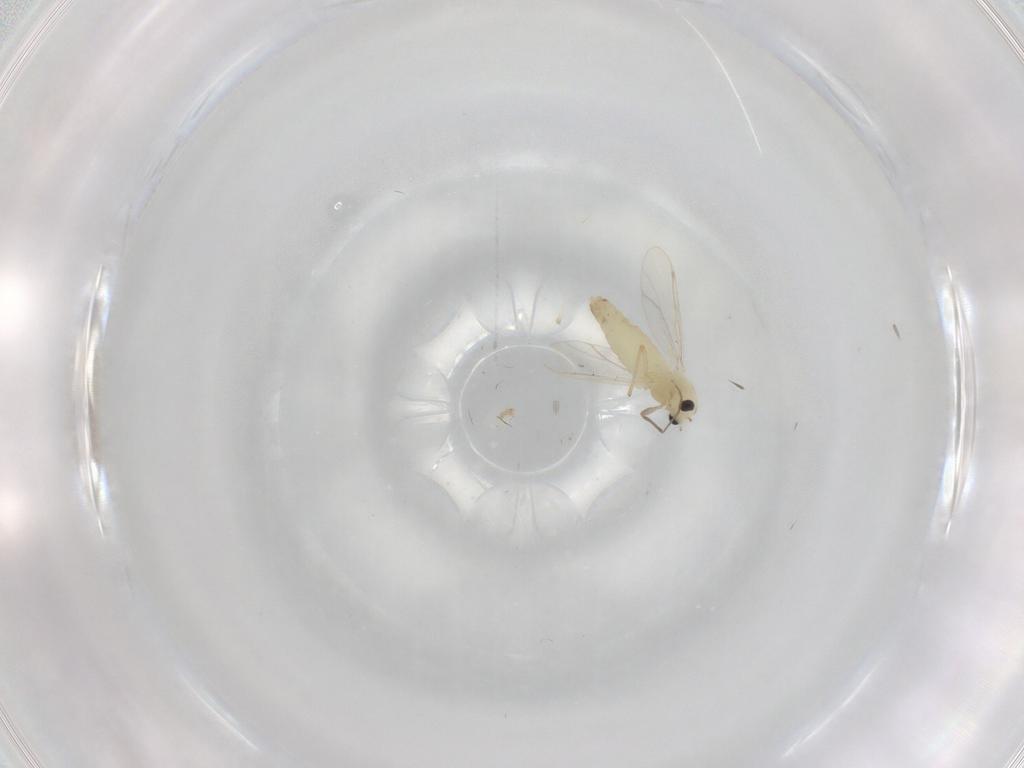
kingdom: Animalia
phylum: Arthropoda
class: Insecta
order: Diptera
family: Chironomidae
